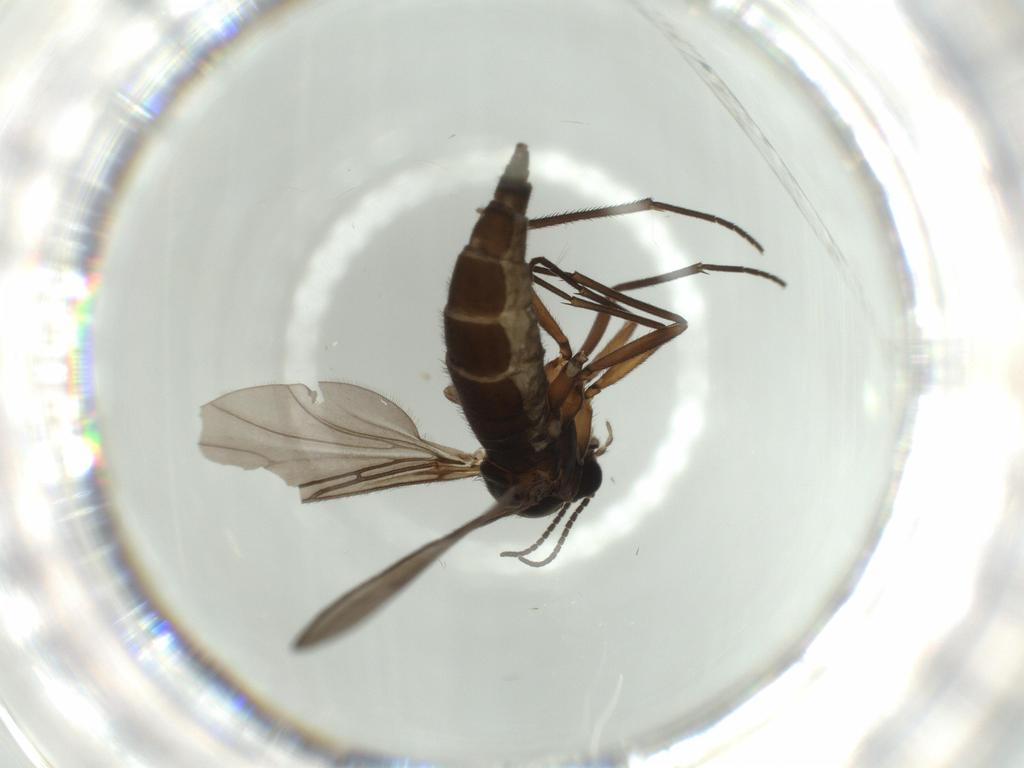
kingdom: Animalia
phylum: Arthropoda
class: Insecta
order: Diptera
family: Sciaridae
